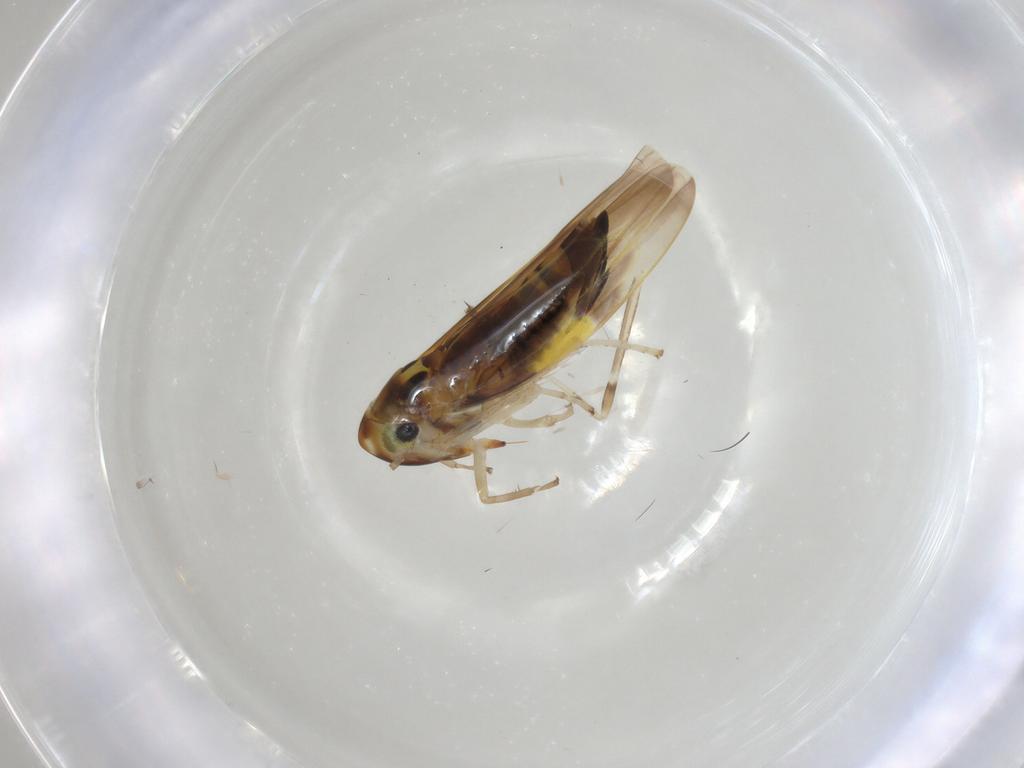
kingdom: Animalia
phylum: Arthropoda
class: Insecta
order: Diptera
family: Chironomidae
